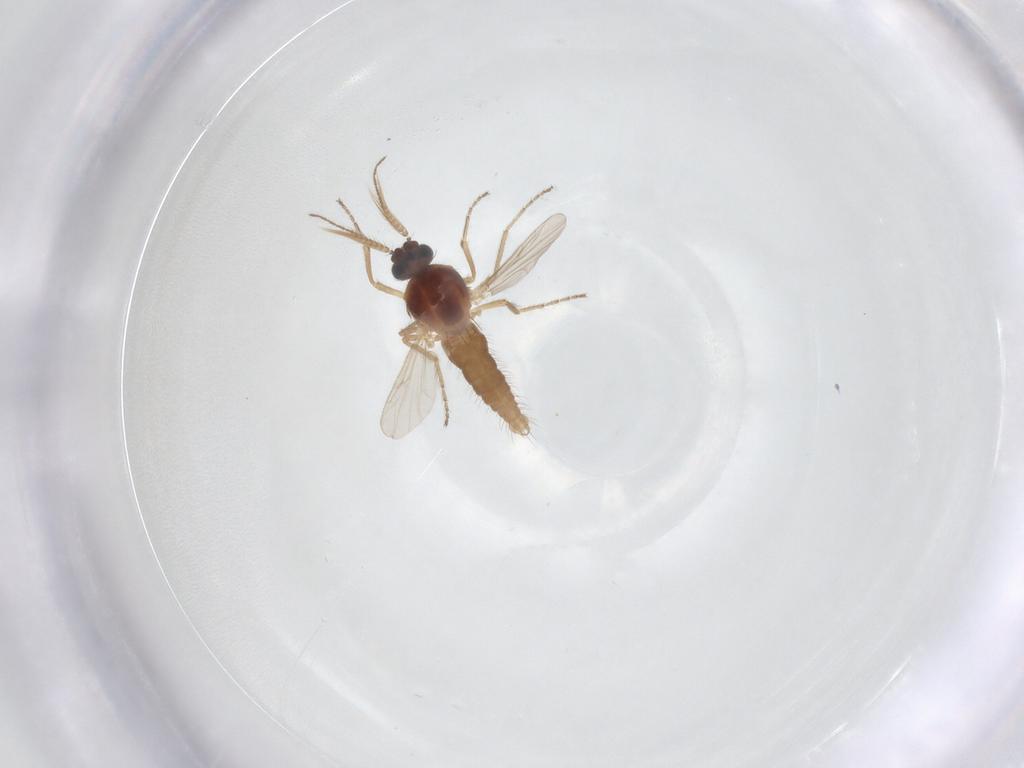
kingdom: Animalia
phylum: Arthropoda
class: Insecta
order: Diptera
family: Ceratopogonidae
